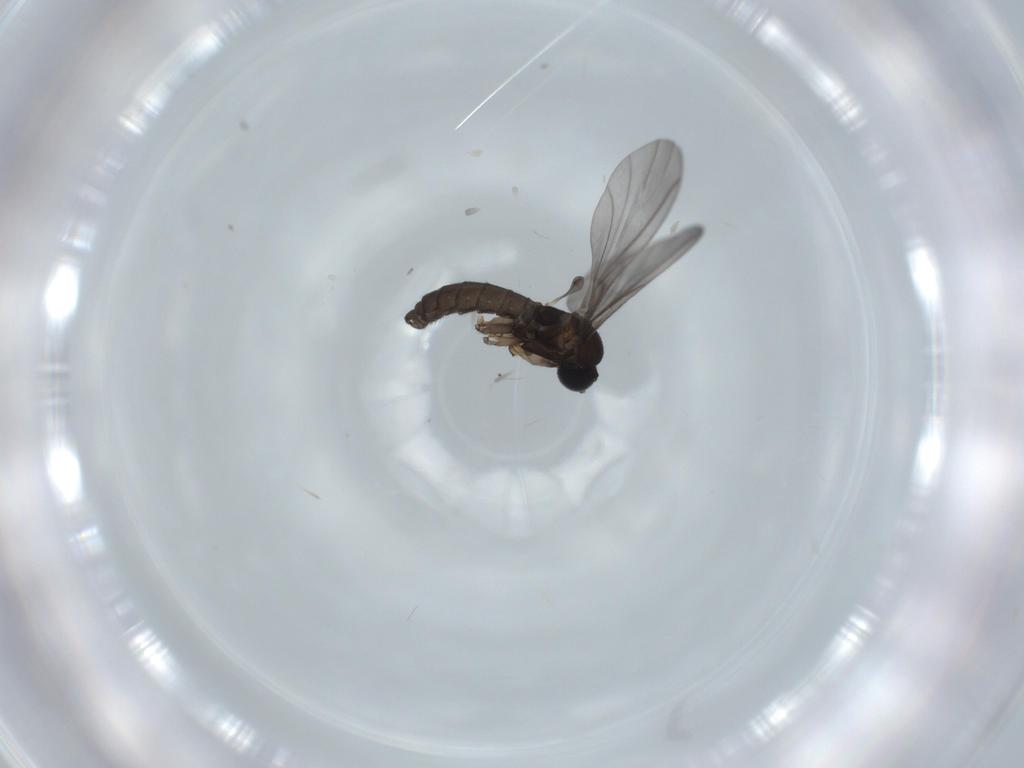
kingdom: Animalia
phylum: Arthropoda
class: Insecta
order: Diptera
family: Sciaridae
